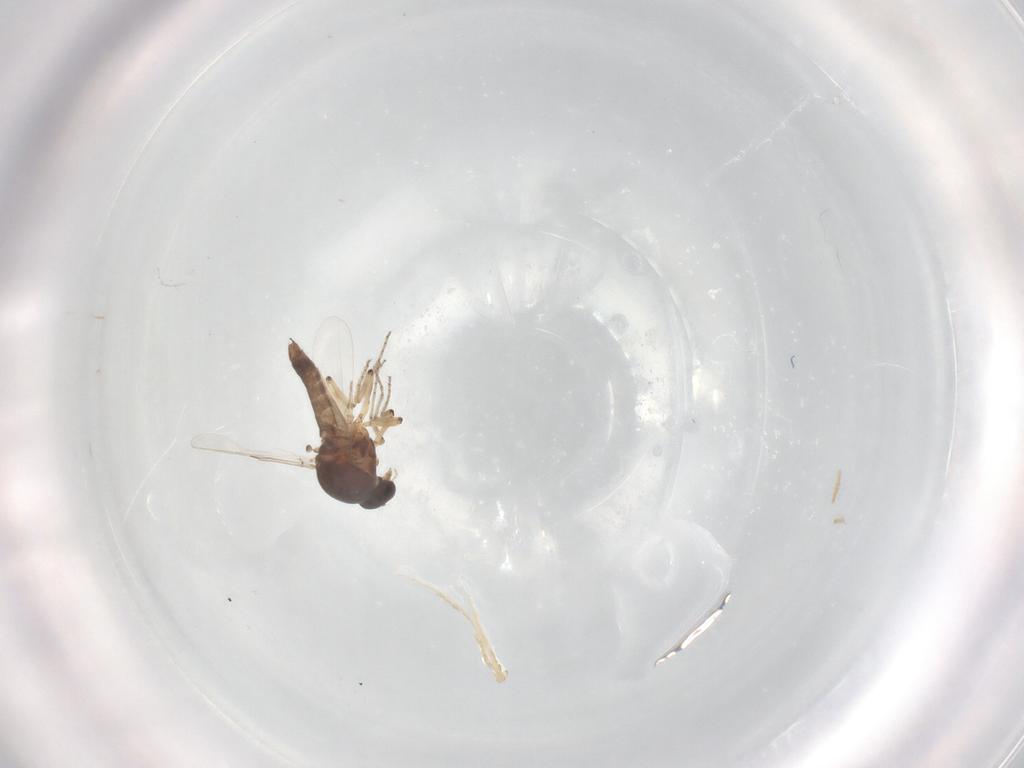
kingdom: Animalia
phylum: Arthropoda
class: Insecta
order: Diptera
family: Ceratopogonidae
